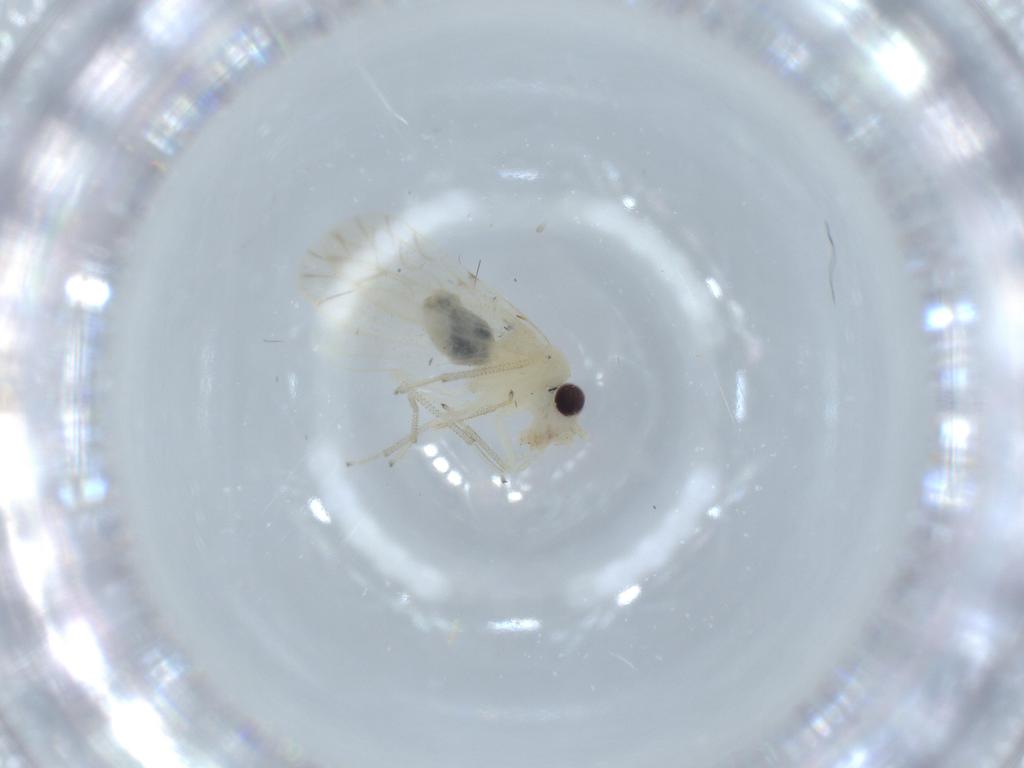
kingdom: Animalia
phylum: Arthropoda
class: Insecta
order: Psocodea
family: Caeciliusidae
